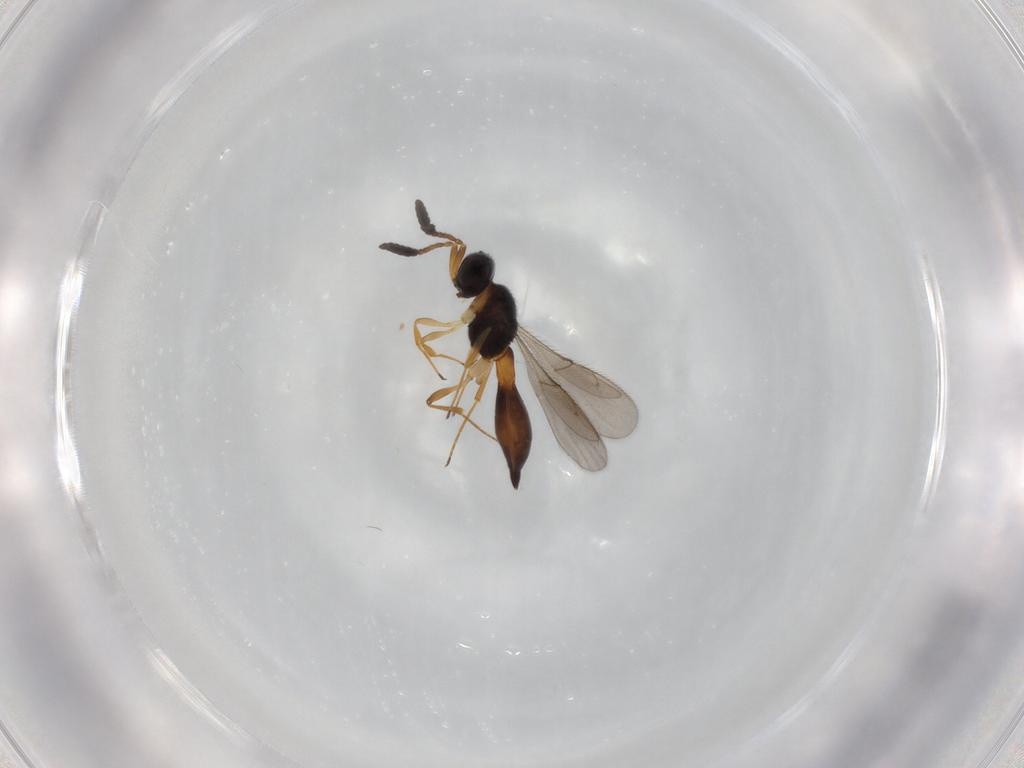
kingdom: Animalia
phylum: Arthropoda
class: Insecta
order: Hymenoptera
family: Scelionidae
